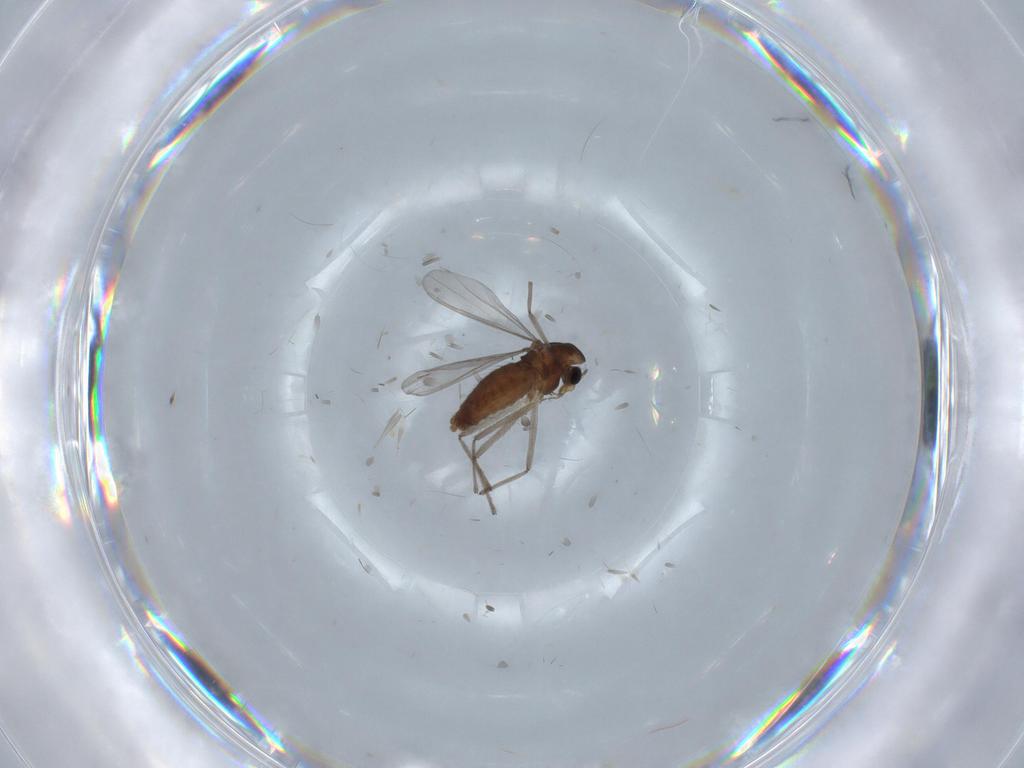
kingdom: Animalia
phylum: Arthropoda
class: Insecta
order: Diptera
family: Chironomidae
